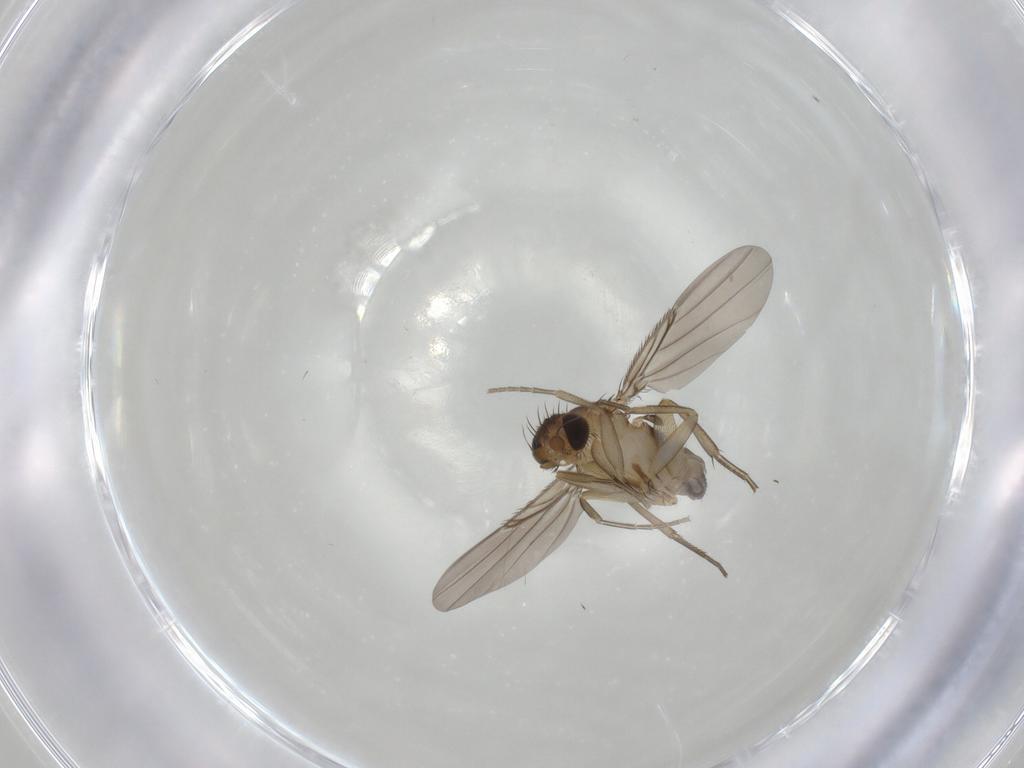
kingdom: Animalia
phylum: Arthropoda
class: Insecta
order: Diptera
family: Phoridae
